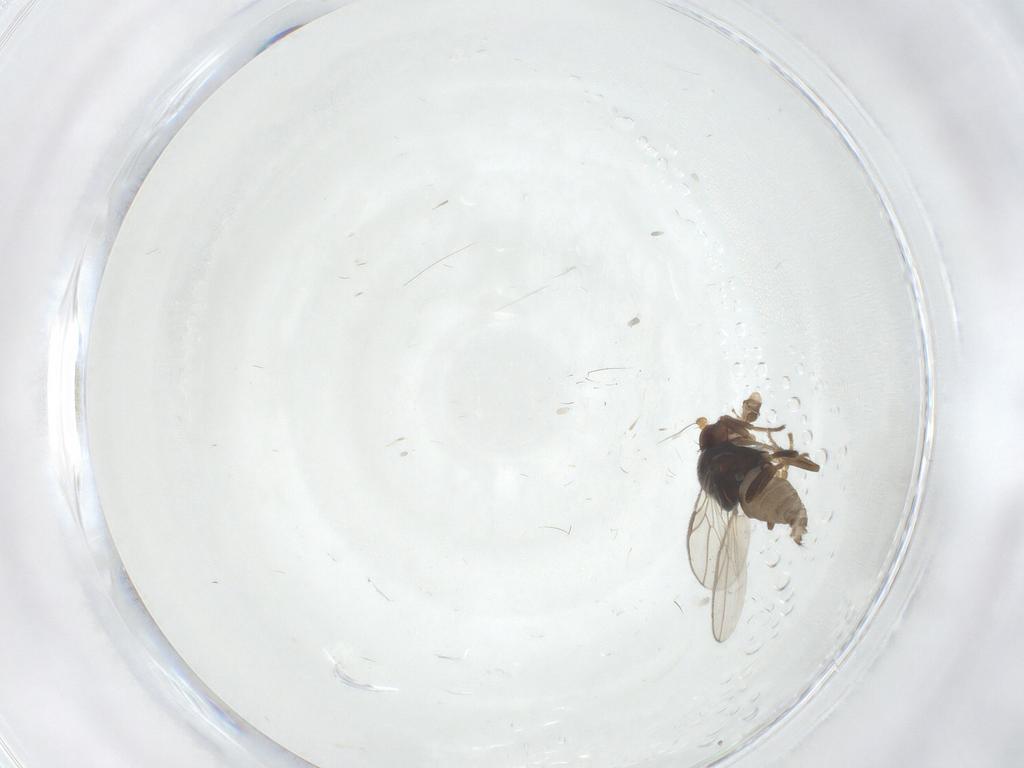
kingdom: Animalia
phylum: Arthropoda
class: Insecta
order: Diptera
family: Sphaeroceridae
